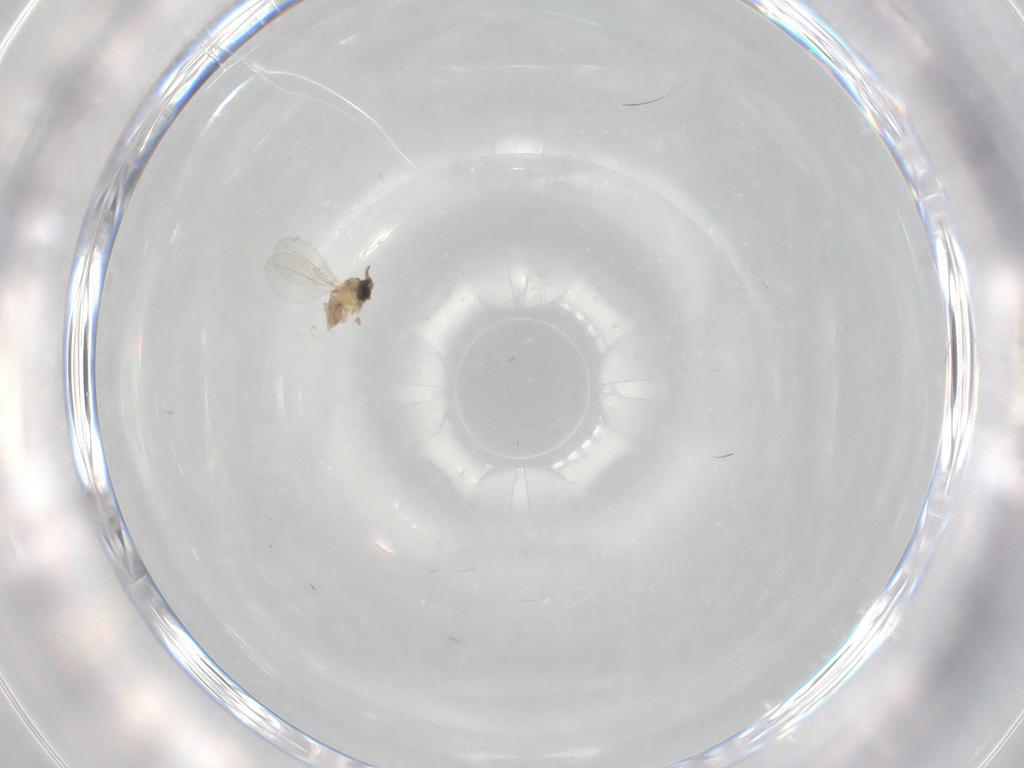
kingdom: Animalia
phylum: Arthropoda
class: Insecta
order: Diptera
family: Cecidomyiidae
